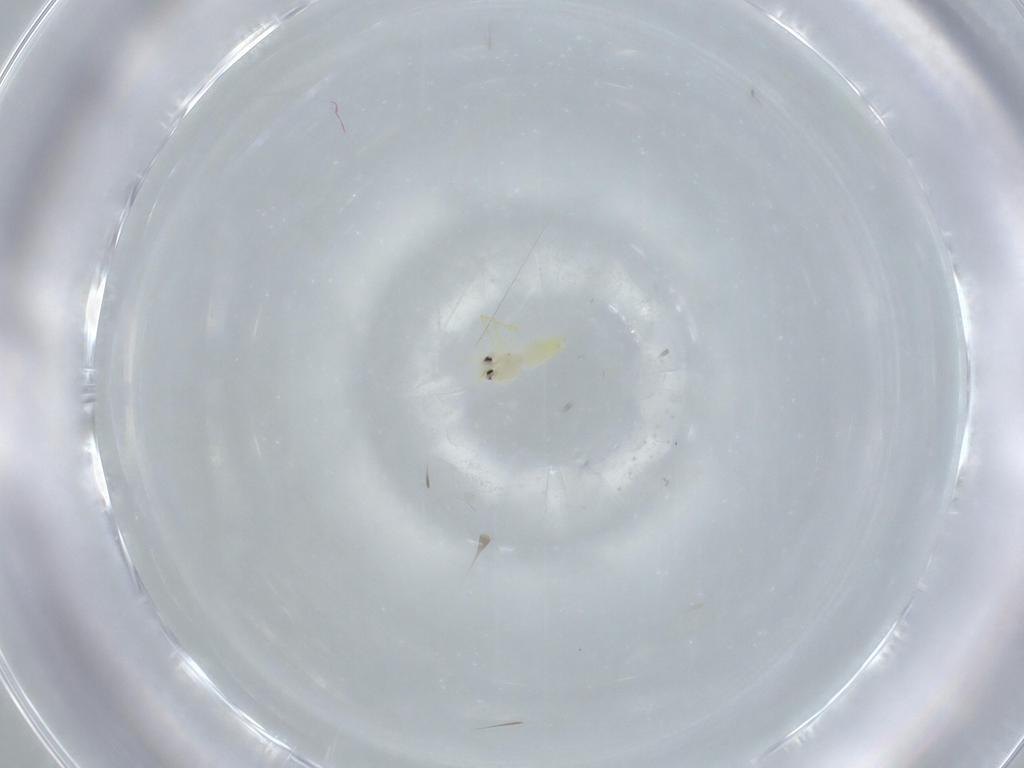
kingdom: Animalia
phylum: Arthropoda
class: Insecta
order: Hemiptera
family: Aleyrodidae
